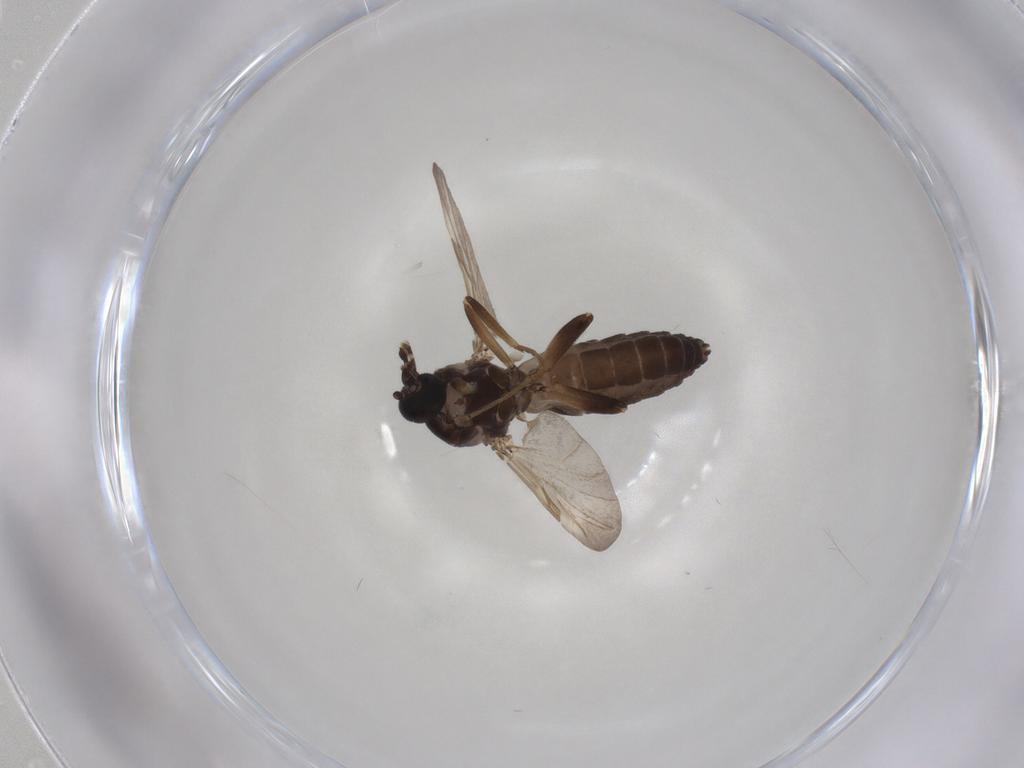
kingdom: Animalia
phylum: Arthropoda
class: Insecta
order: Diptera
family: Ceratopogonidae
